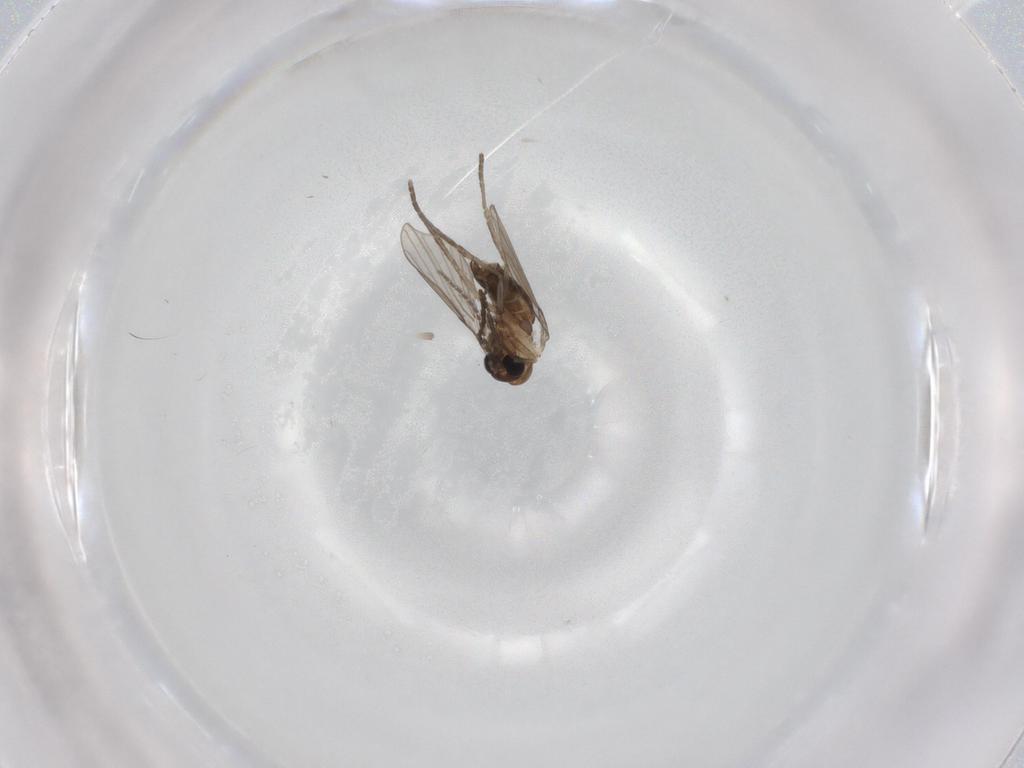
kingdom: Animalia
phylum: Arthropoda
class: Insecta
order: Diptera
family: Psychodidae
